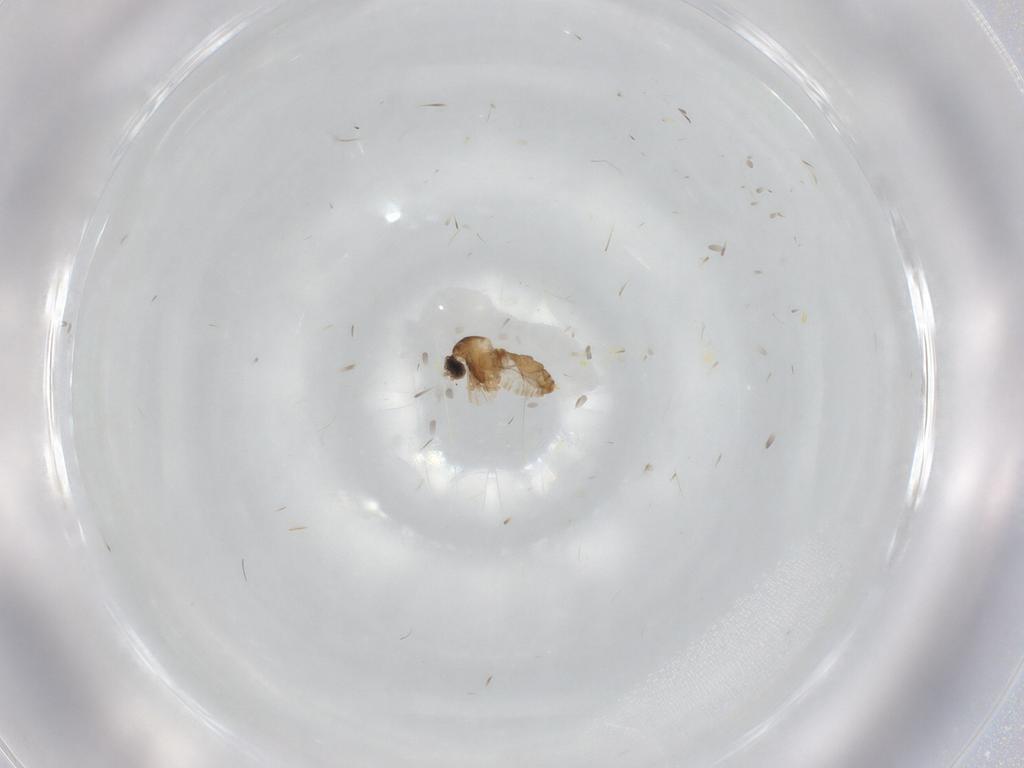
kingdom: Animalia
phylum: Arthropoda
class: Insecta
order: Diptera
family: Cecidomyiidae
